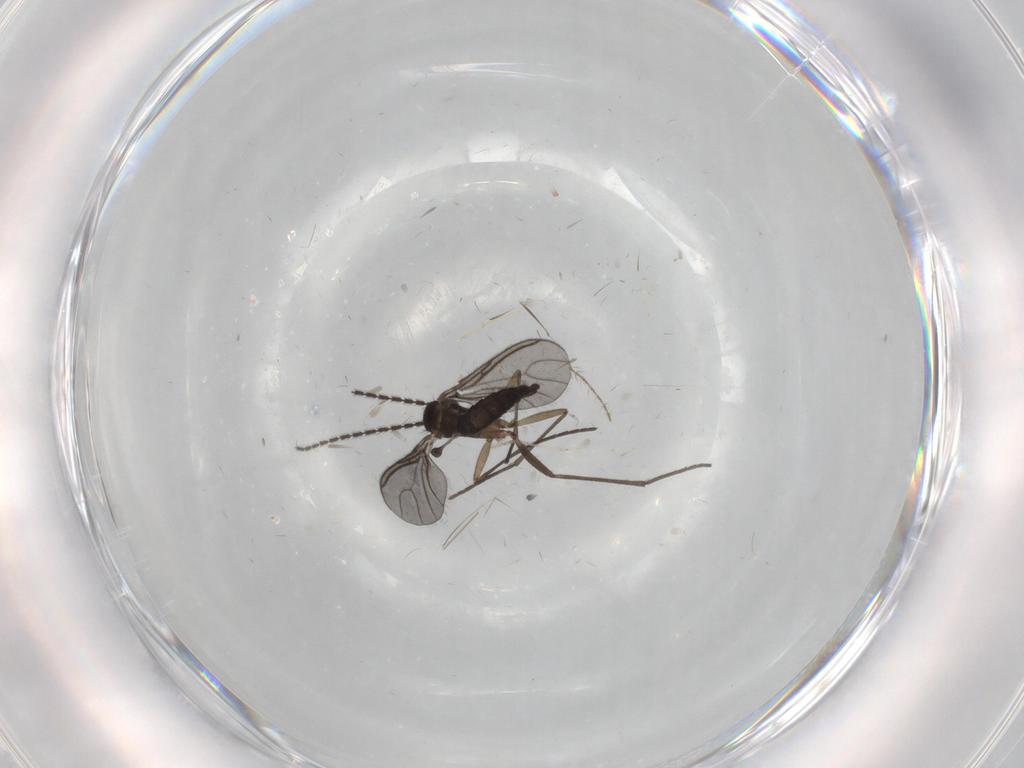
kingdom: Animalia
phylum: Arthropoda
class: Insecta
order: Diptera
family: Sciaridae
